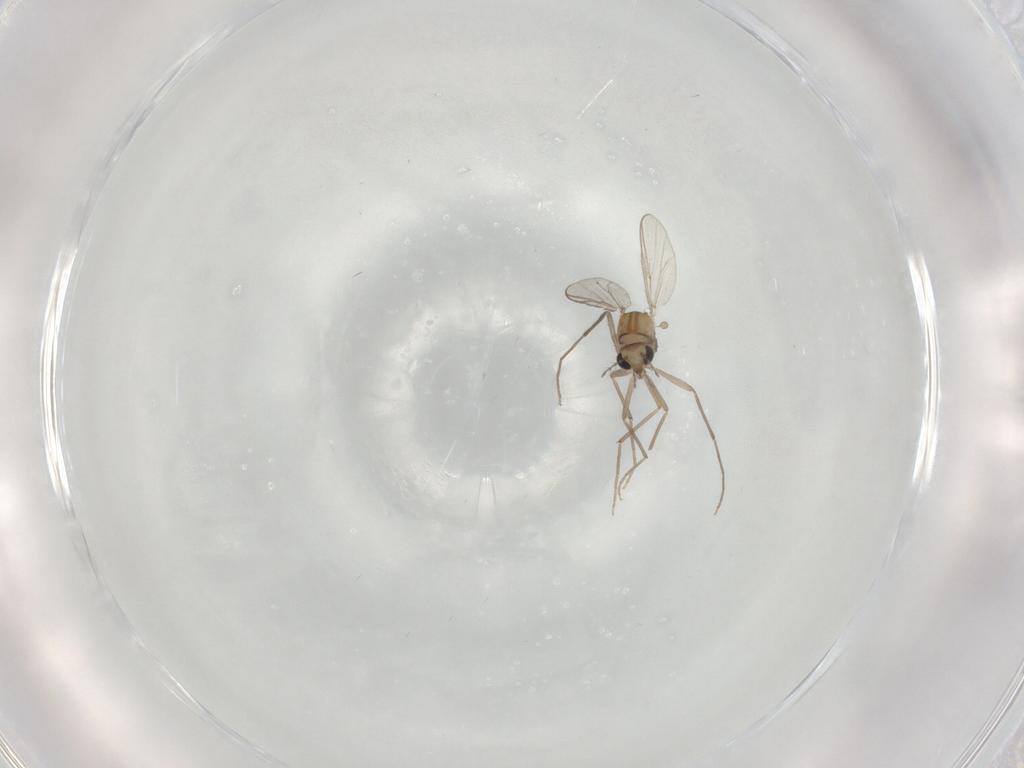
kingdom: Animalia
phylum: Arthropoda
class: Insecta
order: Diptera
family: Chironomidae
